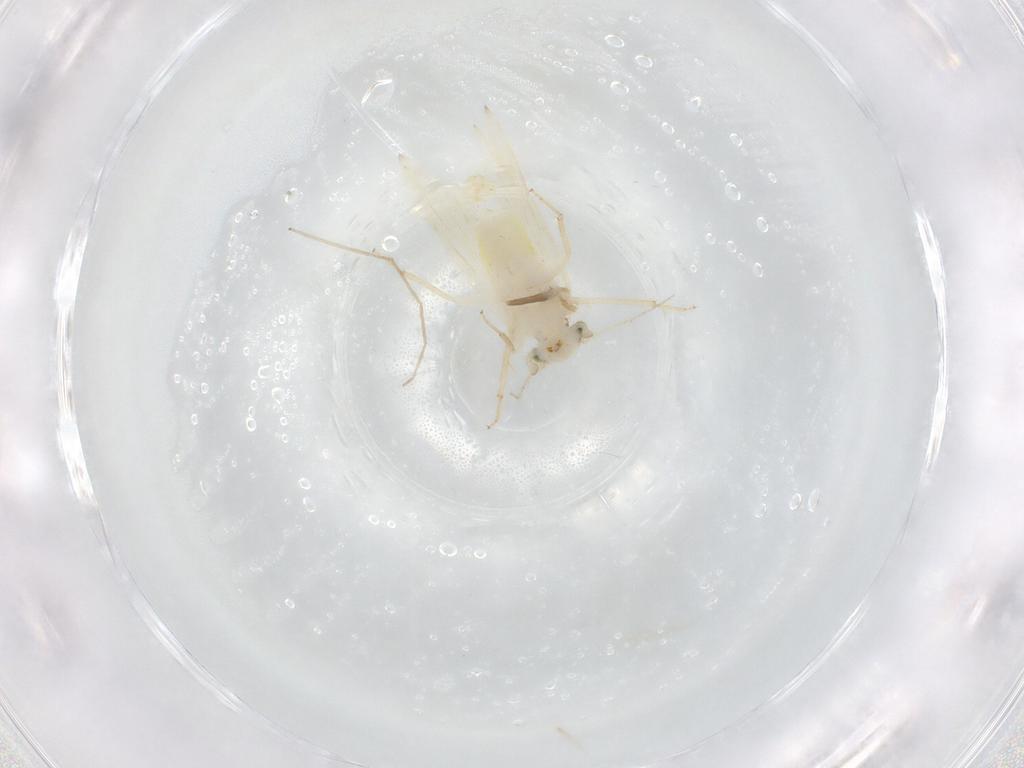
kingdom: Animalia
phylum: Arthropoda
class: Insecta
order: Psocodea
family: Lepidopsocidae
